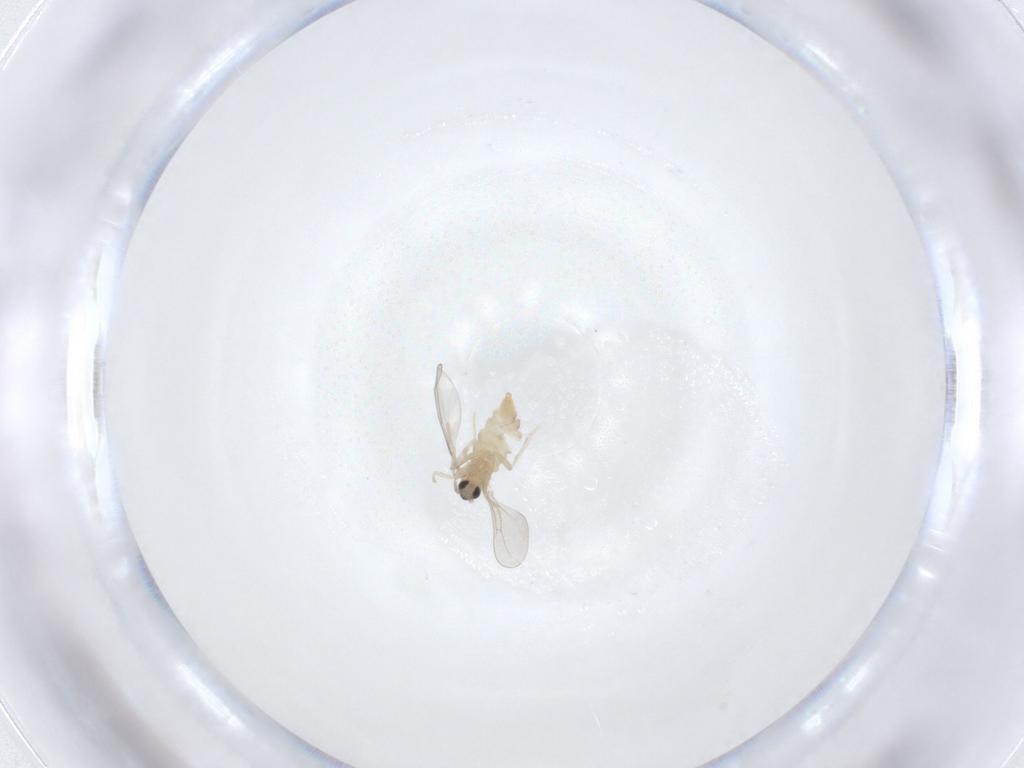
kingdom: Animalia
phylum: Arthropoda
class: Insecta
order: Diptera
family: Cecidomyiidae
